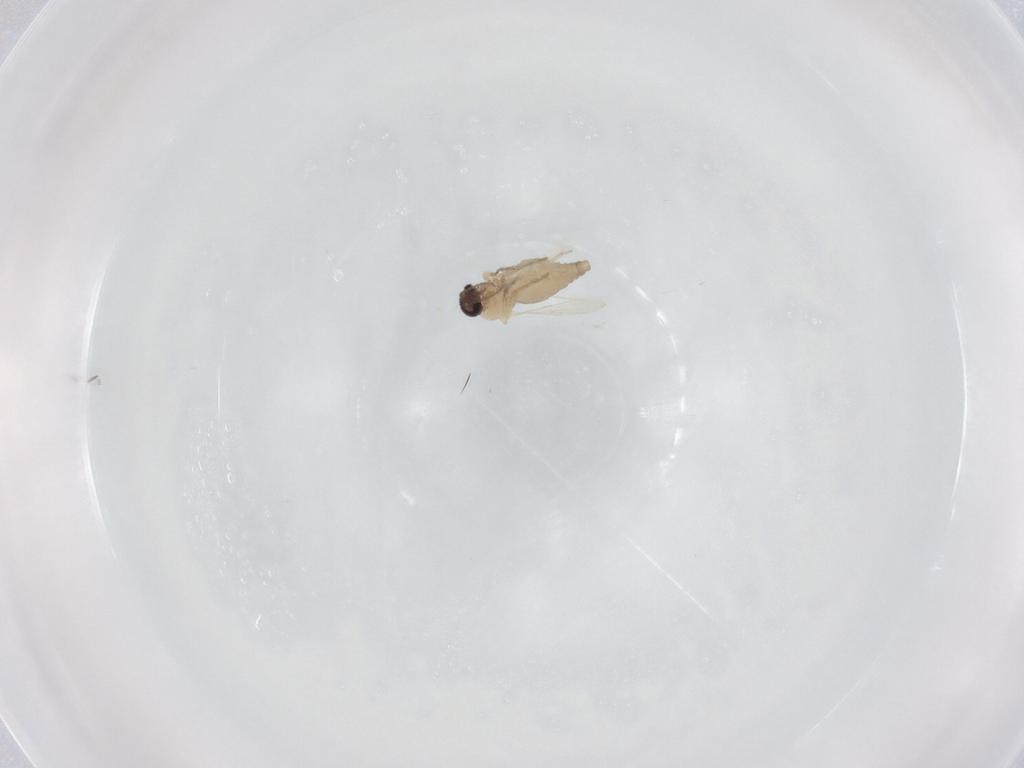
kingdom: Animalia
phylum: Arthropoda
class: Insecta
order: Diptera
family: Ceratopogonidae
